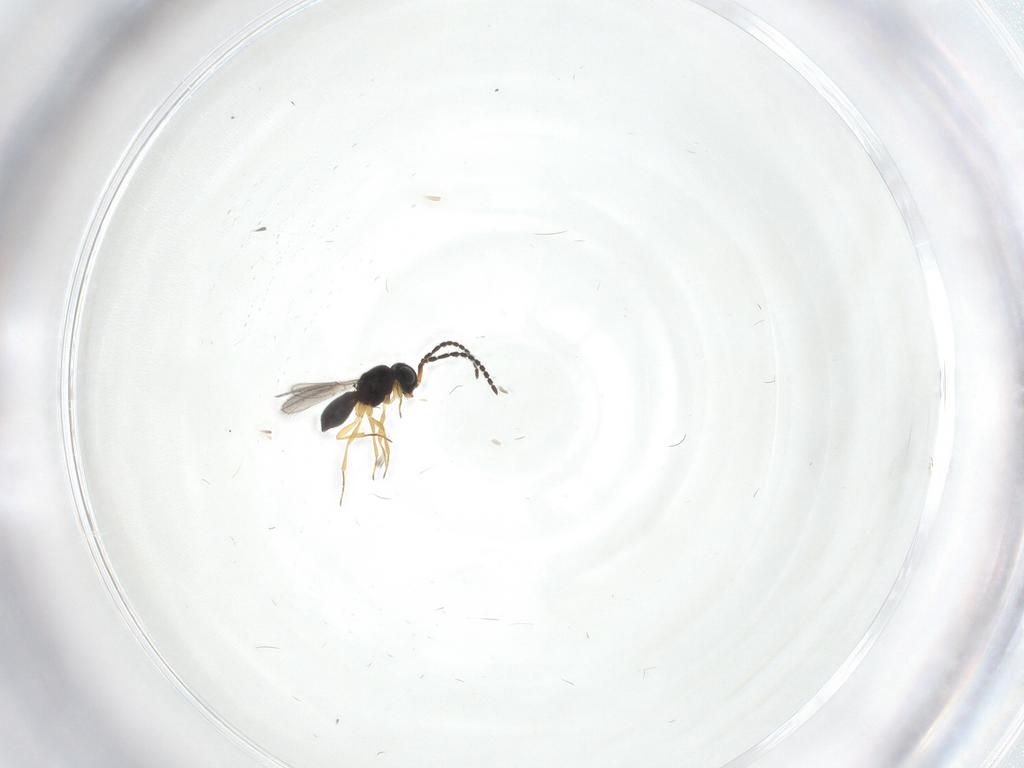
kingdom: Animalia
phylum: Arthropoda
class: Insecta
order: Hymenoptera
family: Scelionidae
